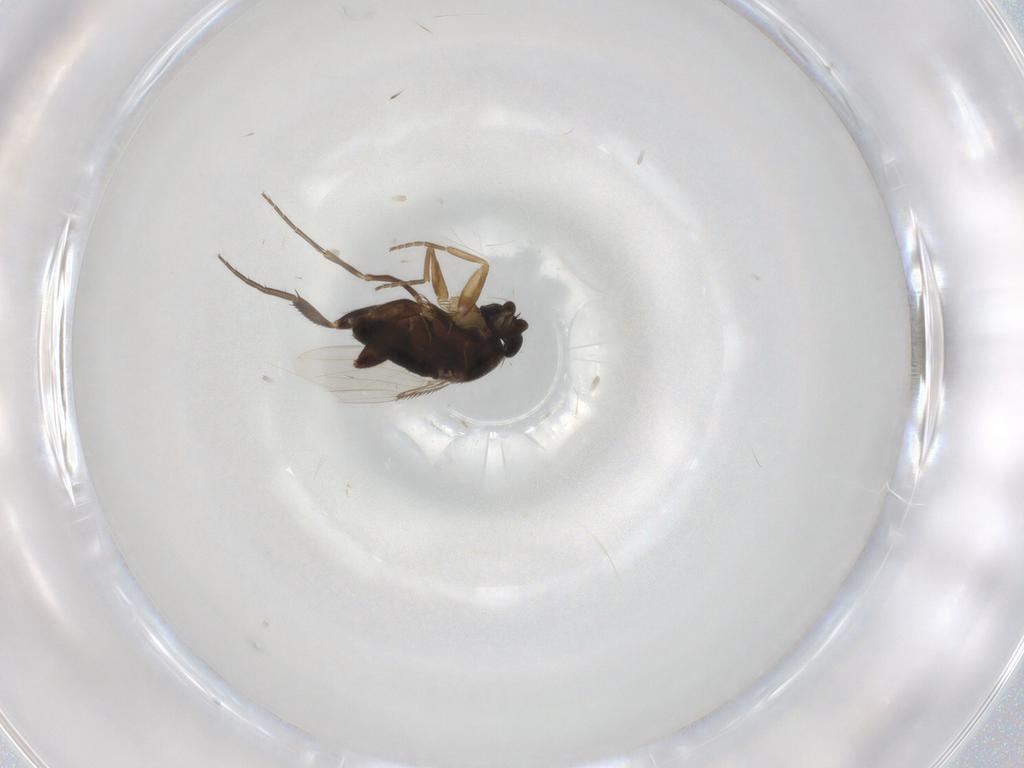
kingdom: Animalia
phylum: Arthropoda
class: Insecta
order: Diptera
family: Phoridae
